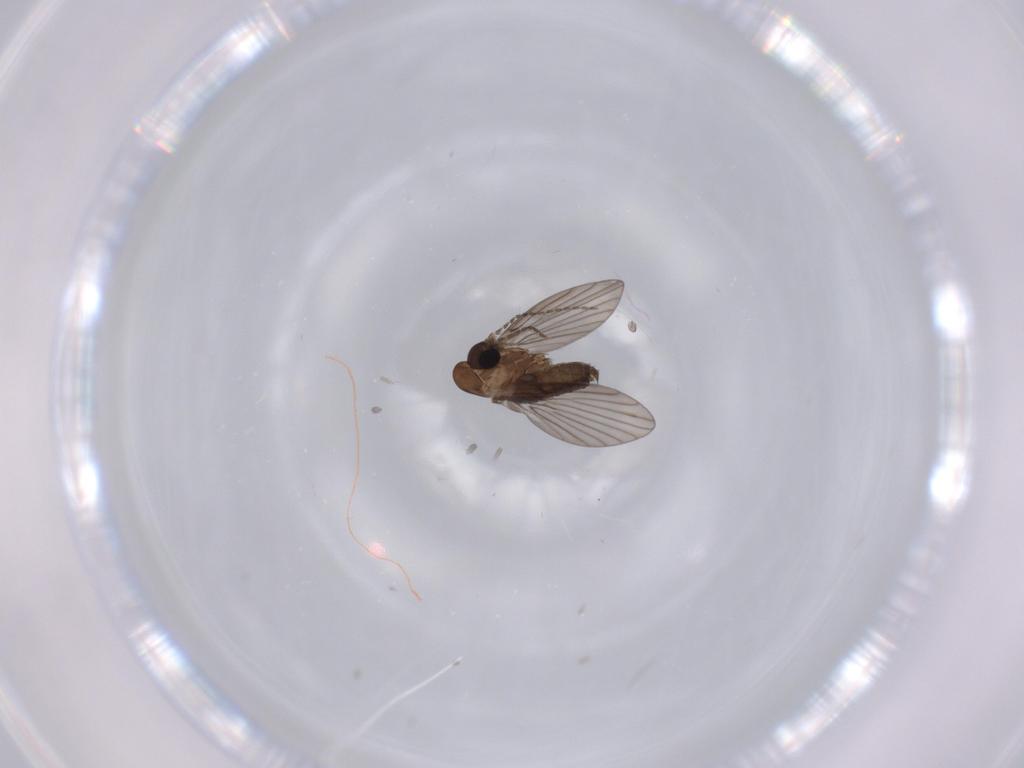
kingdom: Animalia
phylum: Arthropoda
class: Insecta
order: Diptera
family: Psychodidae
